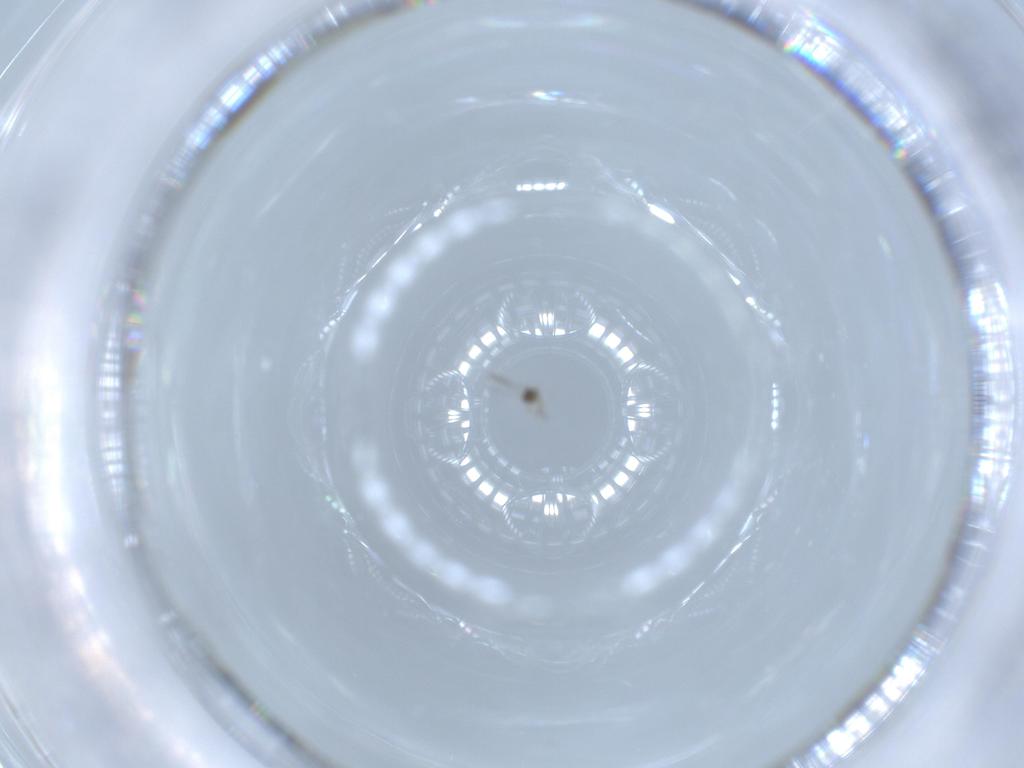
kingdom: Animalia
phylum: Arthropoda
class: Insecta
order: Hymenoptera
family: Mymaridae
